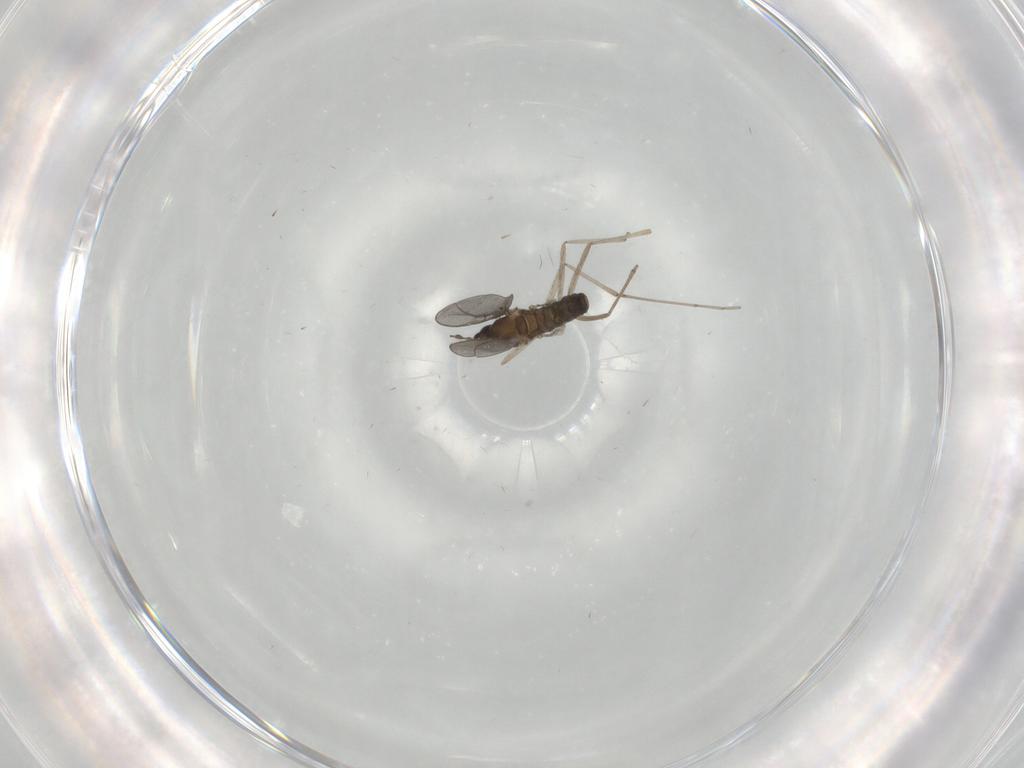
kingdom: Animalia
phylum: Arthropoda
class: Insecta
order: Diptera
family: Cecidomyiidae
